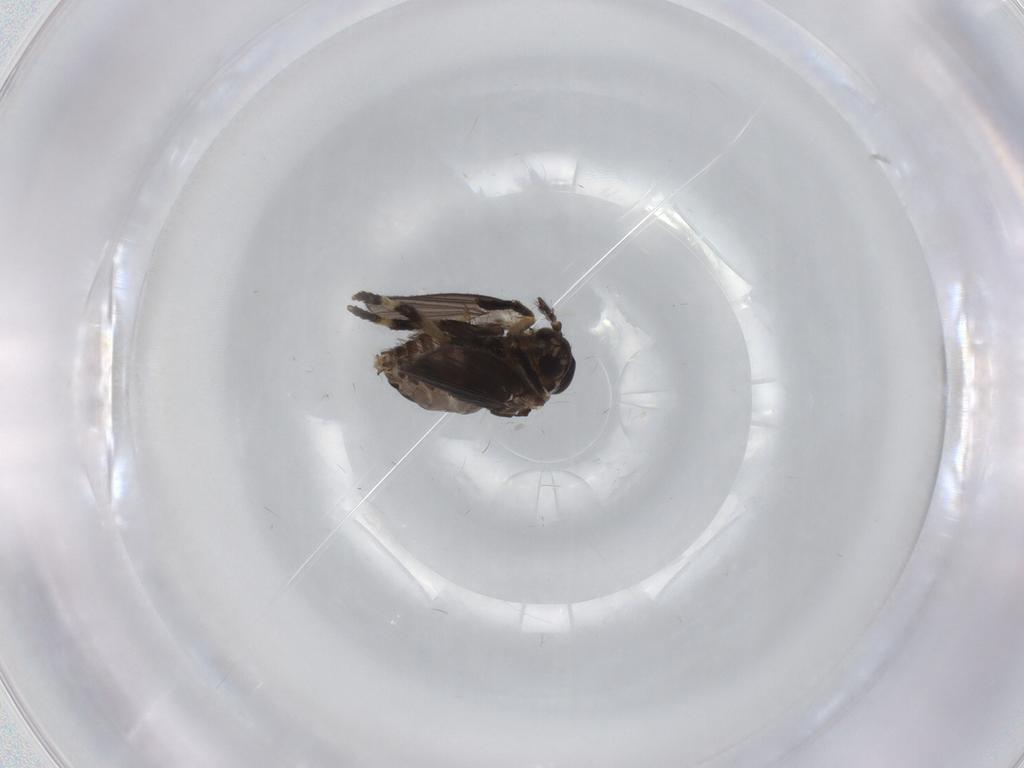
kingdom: Animalia
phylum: Arthropoda
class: Insecta
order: Diptera
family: Psychodidae
